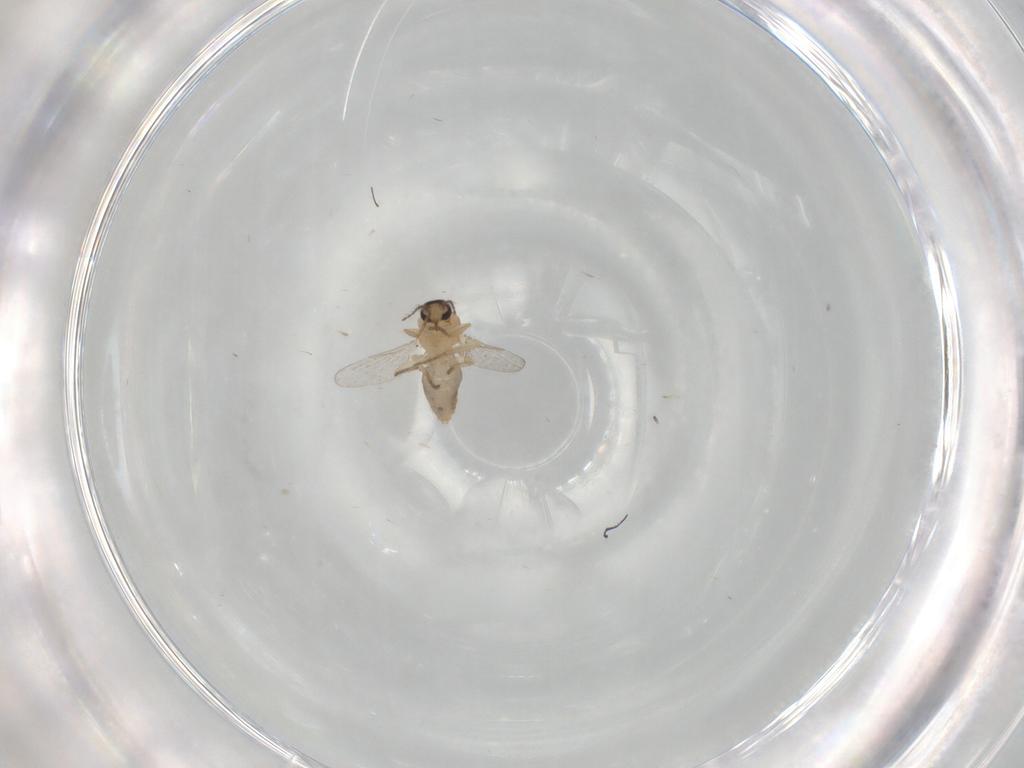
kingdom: Animalia
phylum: Arthropoda
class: Insecta
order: Diptera
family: Ceratopogonidae
